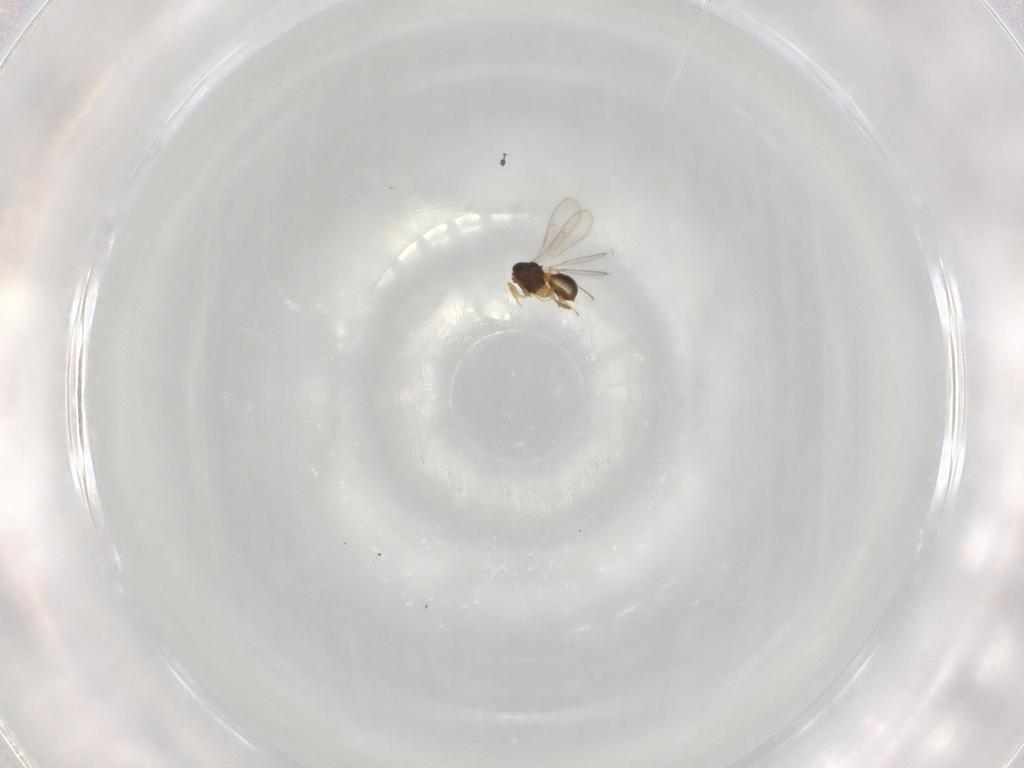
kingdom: Animalia
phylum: Arthropoda
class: Insecta
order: Hymenoptera
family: Scelionidae
